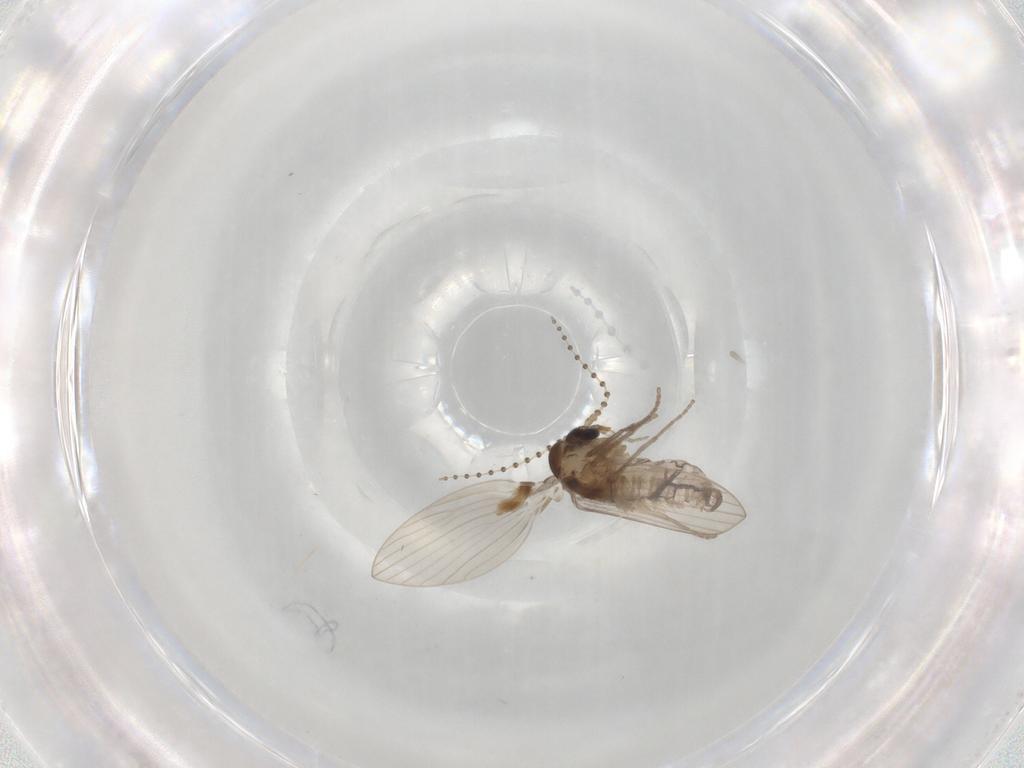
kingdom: Animalia
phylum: Arthropoda
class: Insecta
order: Diptera
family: Psychodidae
